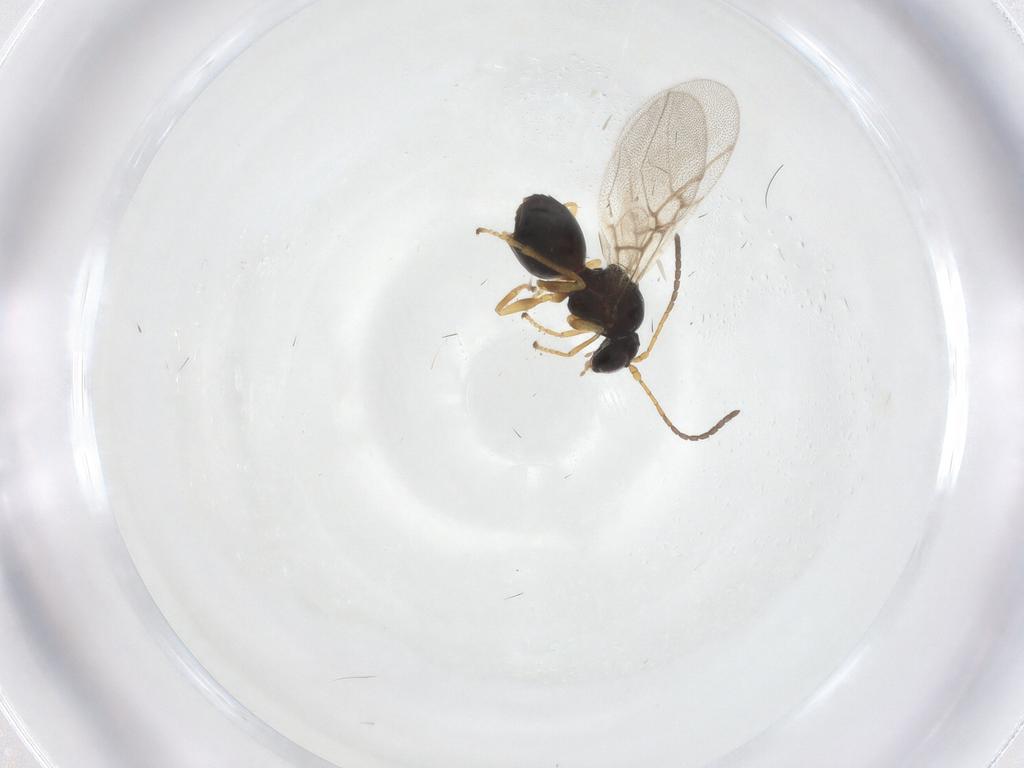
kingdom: Animalia
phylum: Arthropoda
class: Insecta
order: Hymenoptera
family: Cynipidae
